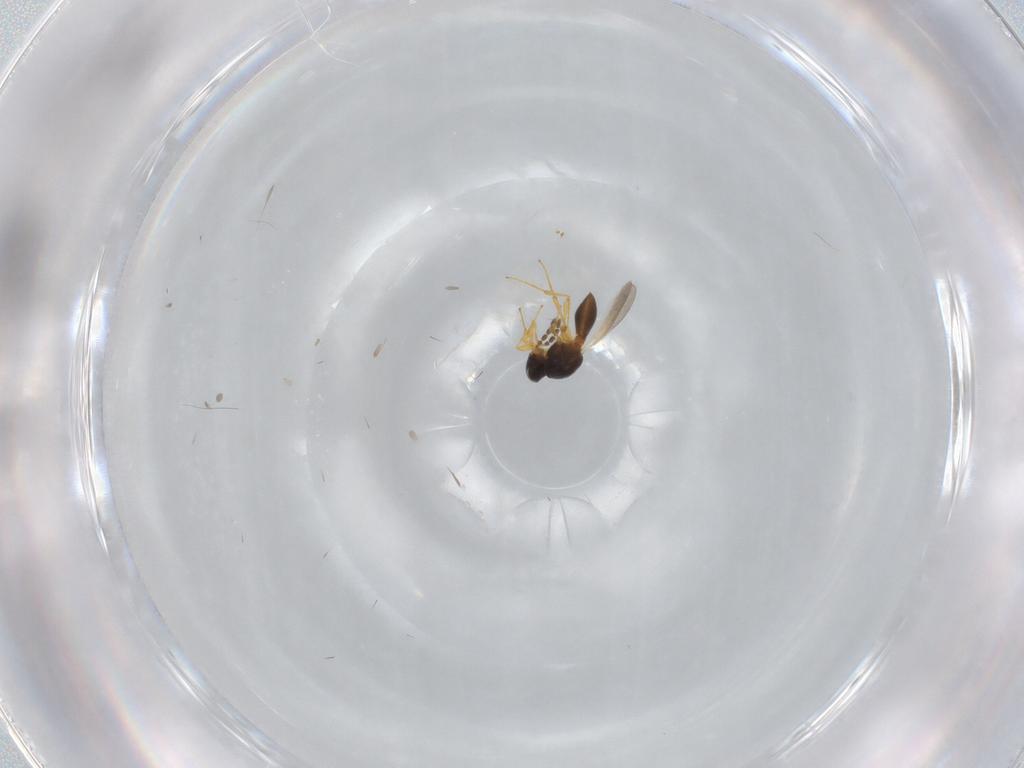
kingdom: Animalia
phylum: Arthropoda
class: Insecta
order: Hymenoptera
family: Platygastridae
